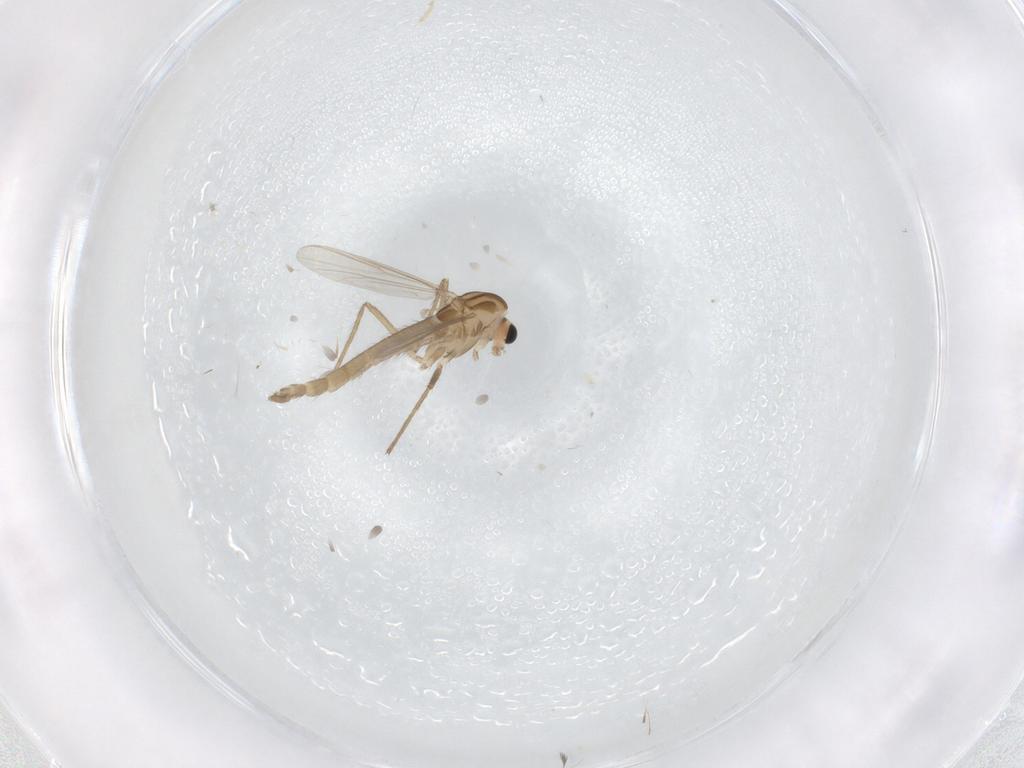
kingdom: Animalia
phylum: Arthropoda
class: Insecta
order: Diptera
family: Chironomidae
